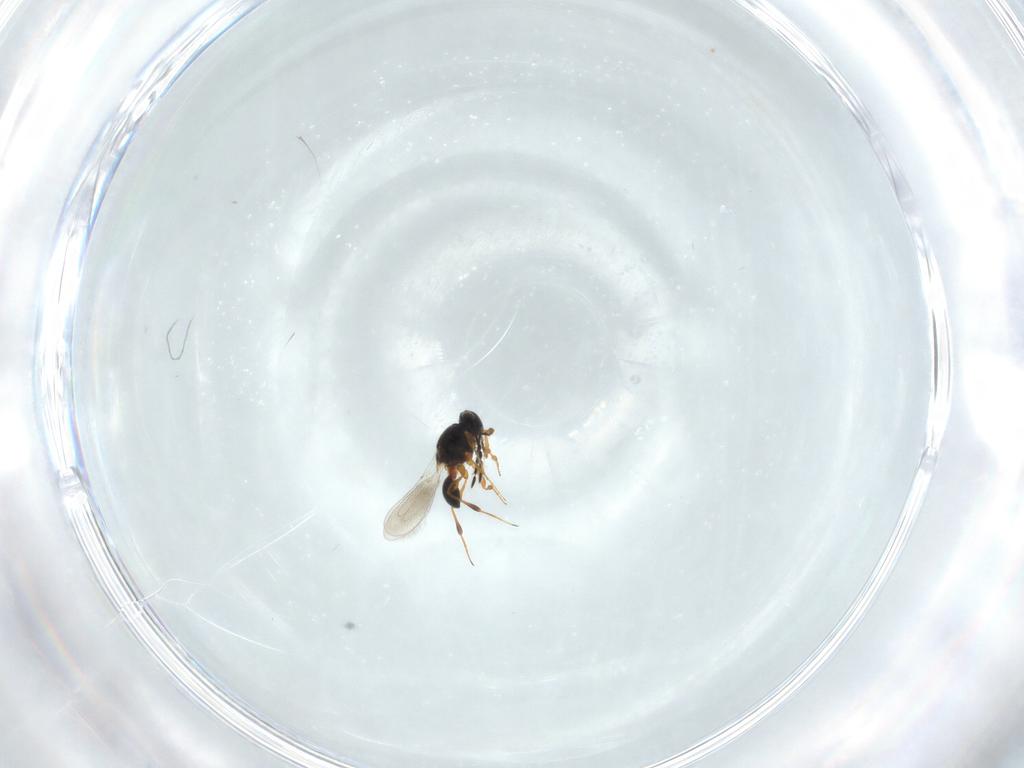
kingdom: Animalia
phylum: Arthropoda
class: Insecta
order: Hymenoptera
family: Platygastridae
